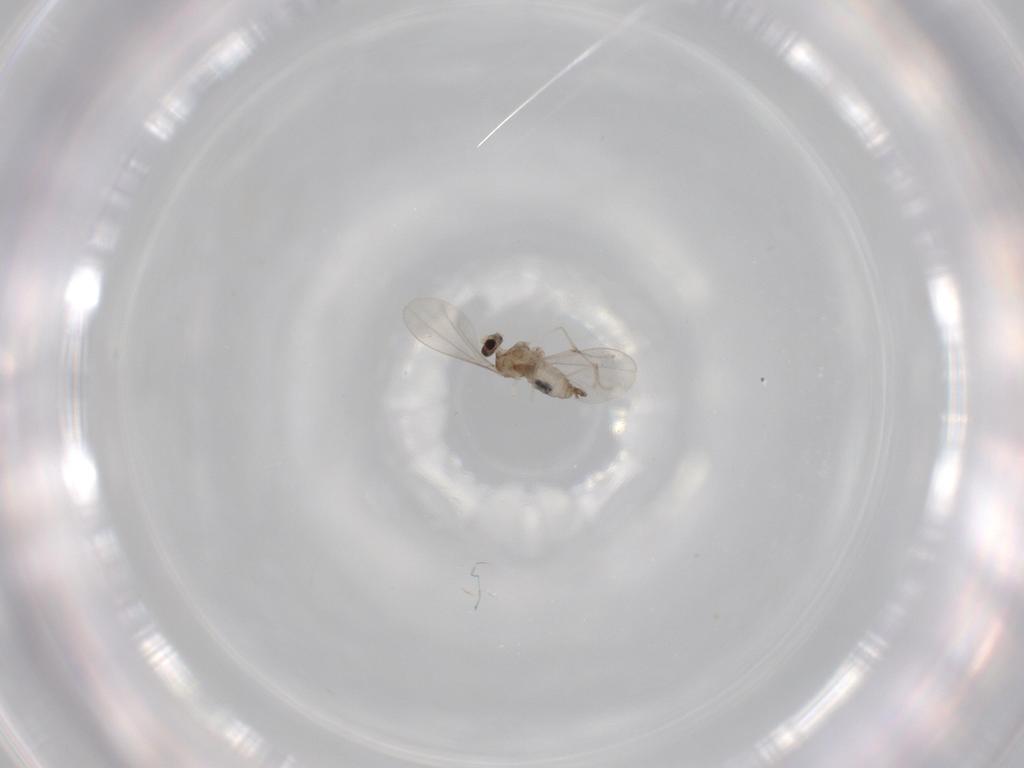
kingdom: Animalia
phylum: Arthropoda
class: Insecta
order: Diptera
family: Cecidomyiidae
